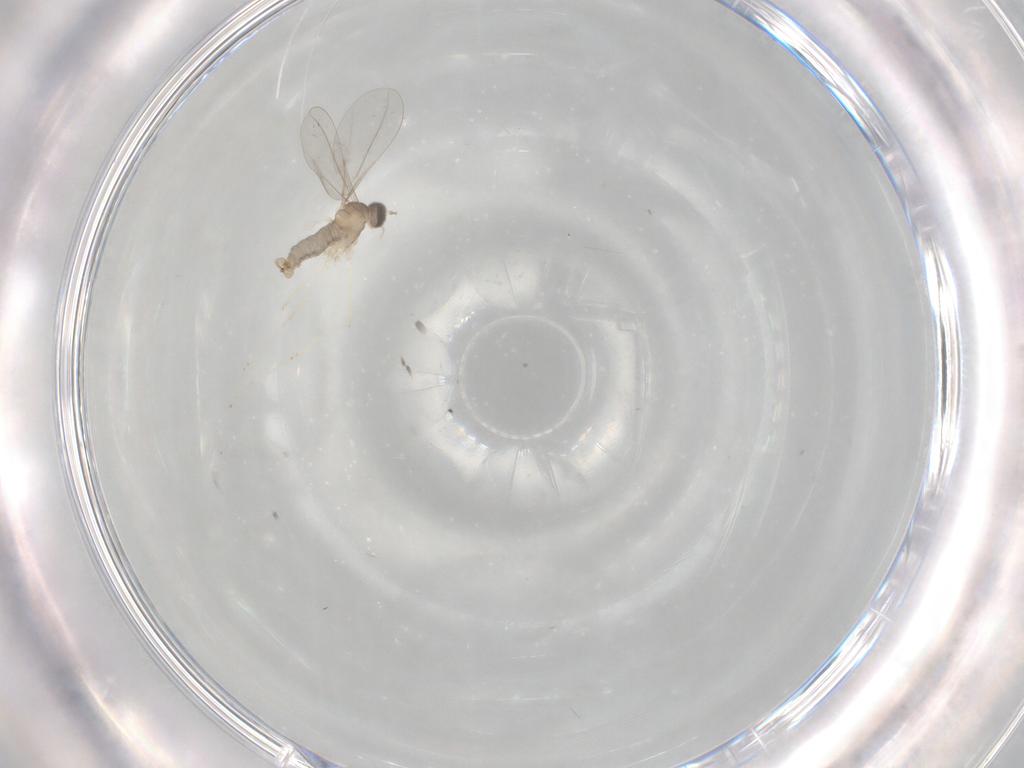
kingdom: Animalia
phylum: Arthropoda
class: Insecta
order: Diptera
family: Cecidomyiidae
